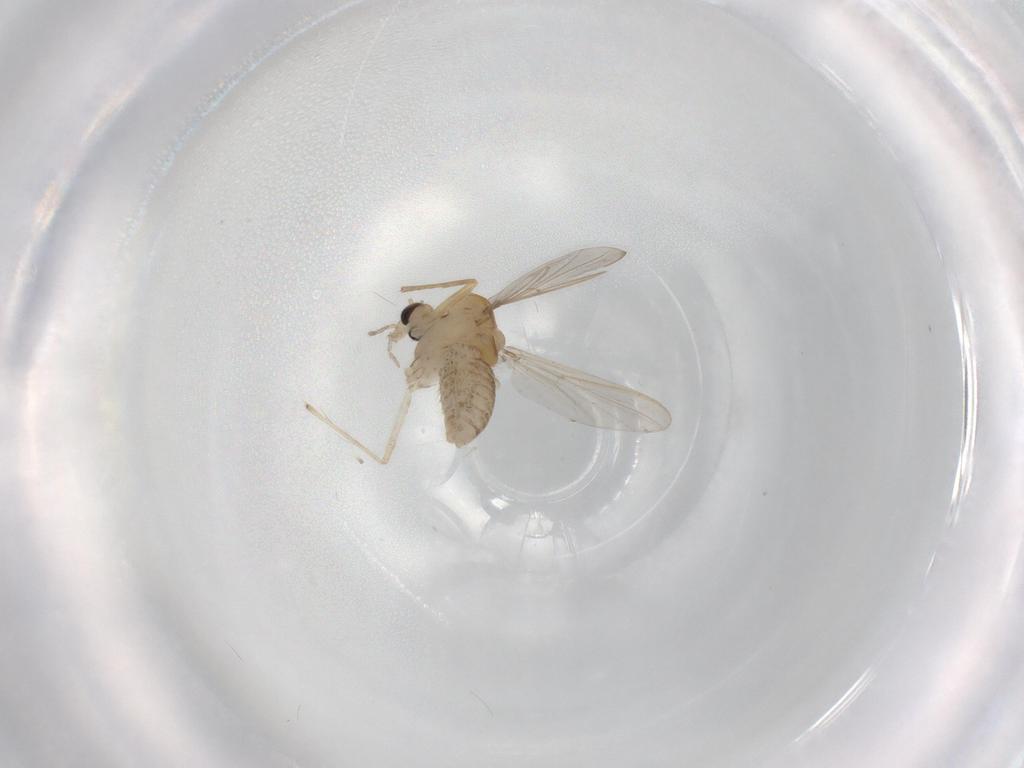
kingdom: Animalia
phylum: Arthropoda
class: Insecta
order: Diptera
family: Chironomidae
